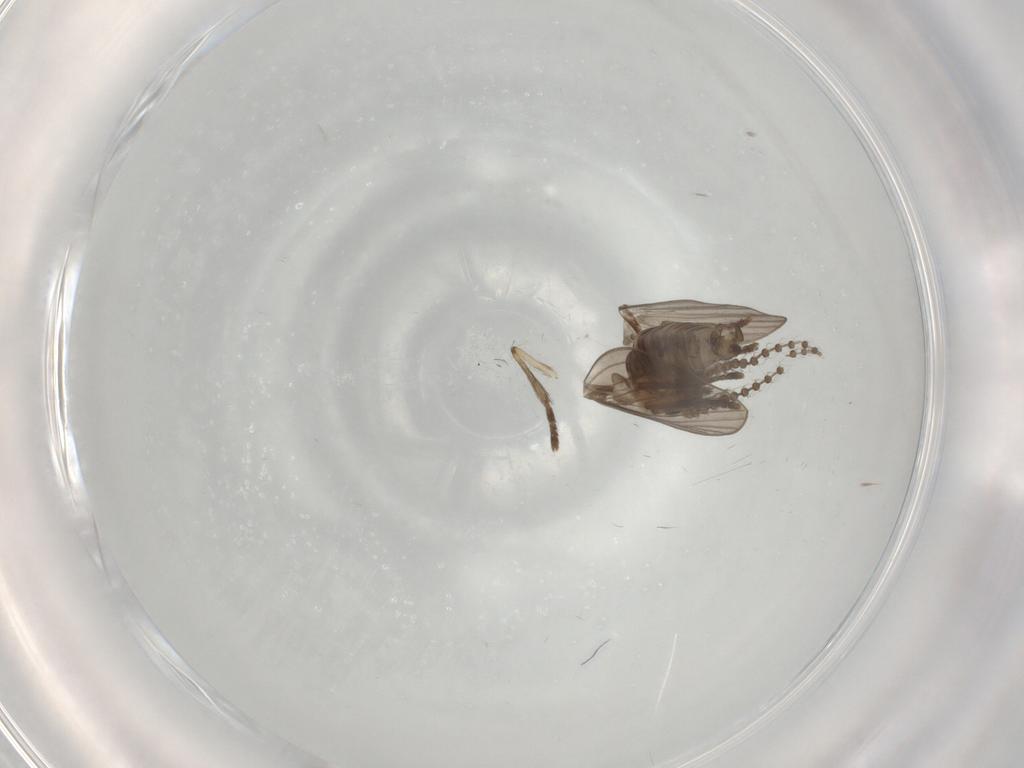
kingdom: Animalia
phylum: Arthropoda
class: Insecta
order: Diptera
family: Psychodidae
